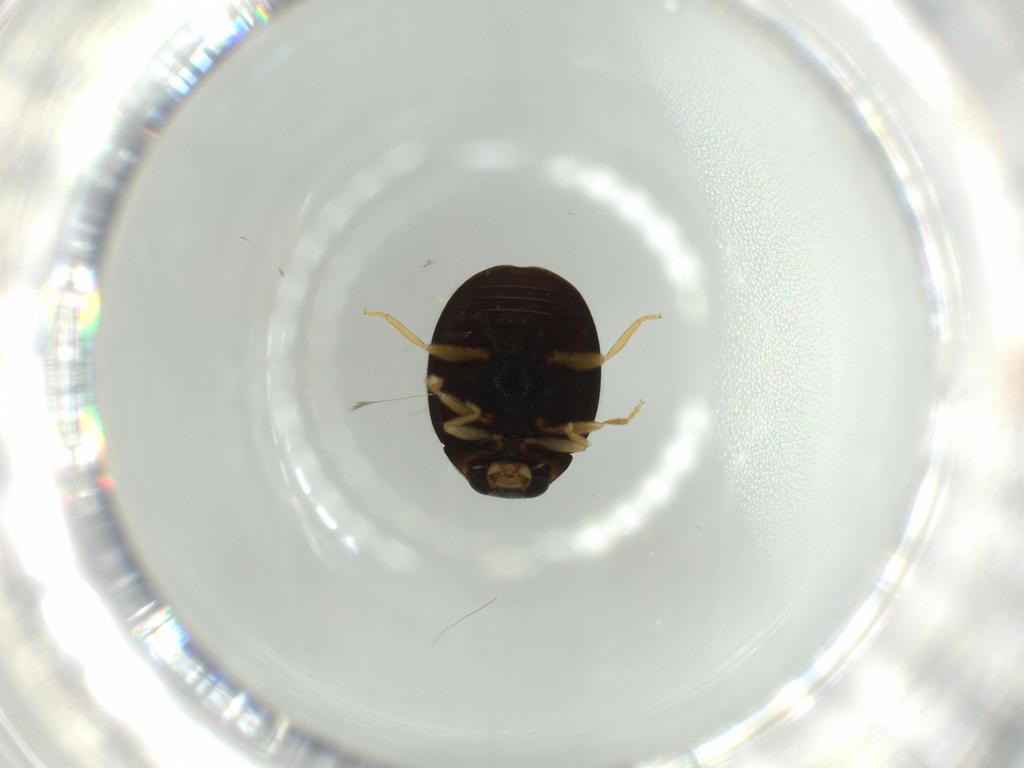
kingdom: Animalia
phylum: Arthropoda
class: Insecta
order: Coleoptera
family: Coccinellidae
